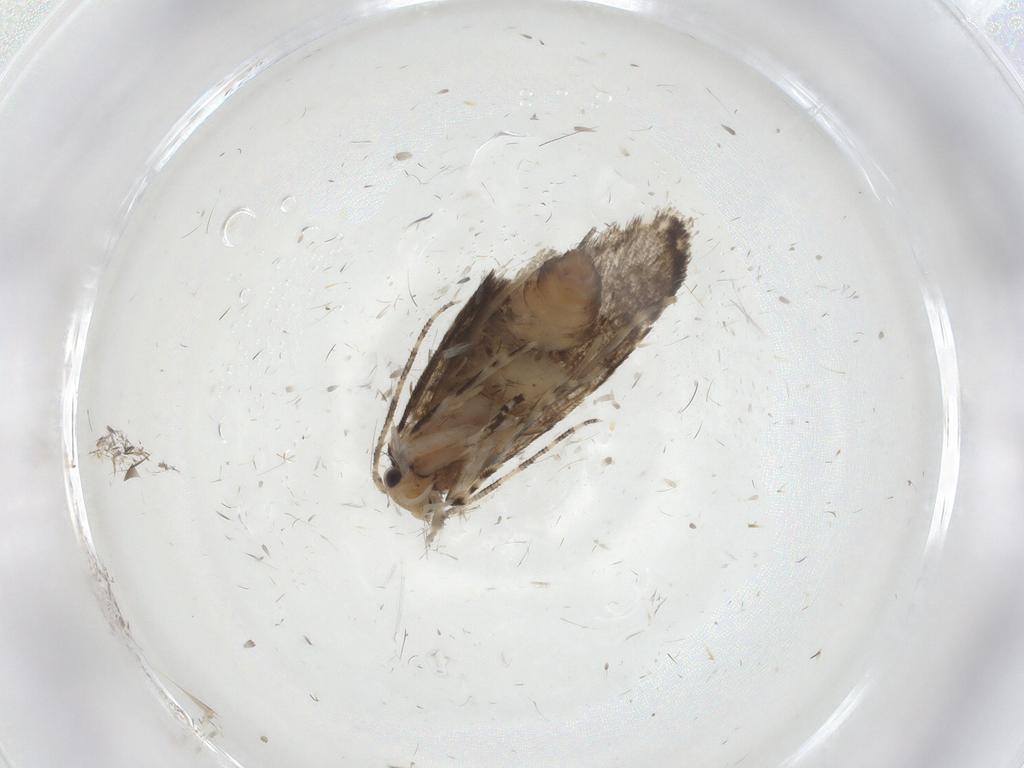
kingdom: Animalia
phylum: Arthropoda
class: Insecta
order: Lepidoptera
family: Tineidae
